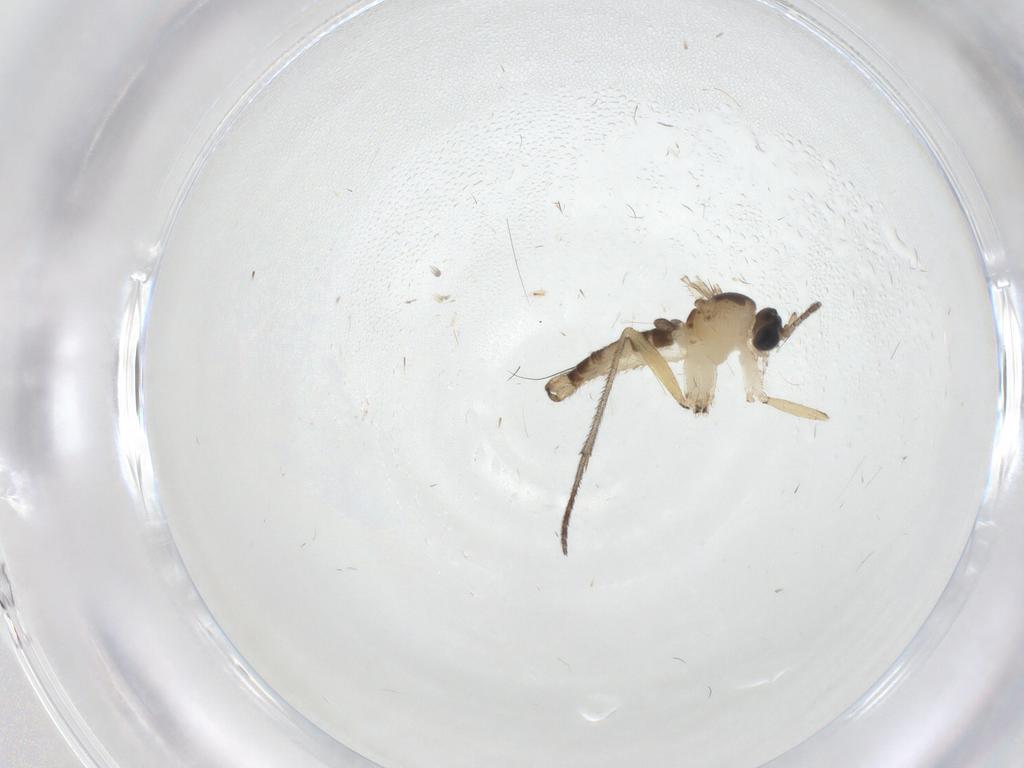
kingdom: Animalia
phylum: Arthropoda
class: Insecta
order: Diptera
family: Sciaridae
